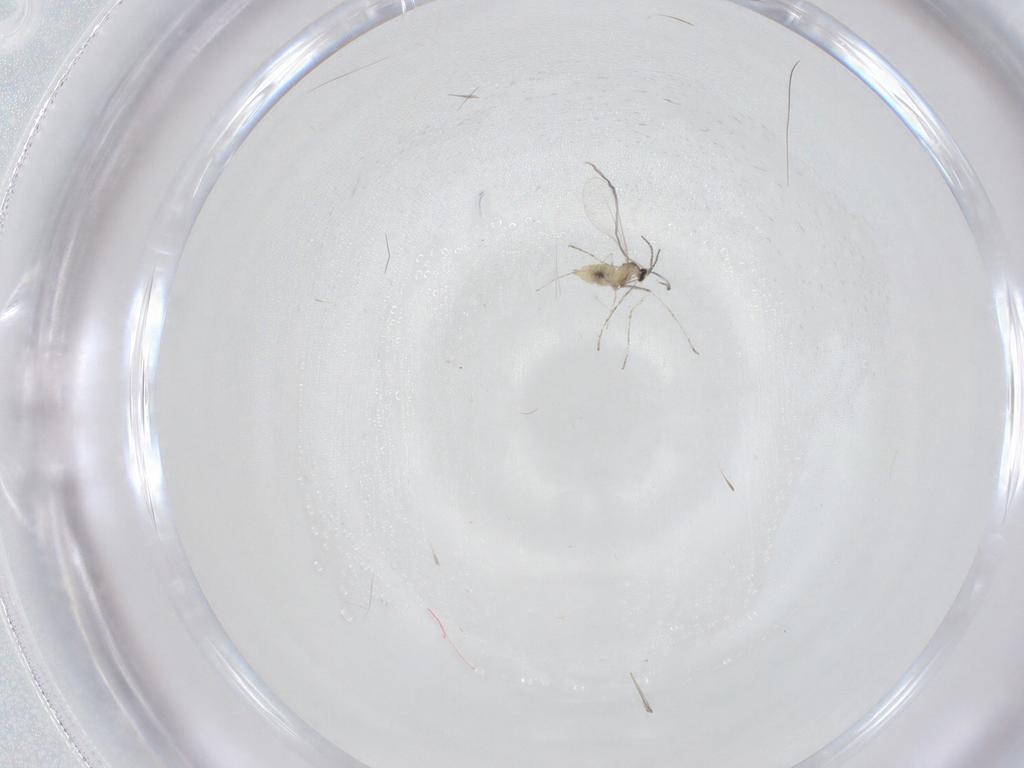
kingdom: Animalia
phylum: Arthropoda
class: Insecta
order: Diptera
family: Cecidomyiidae
